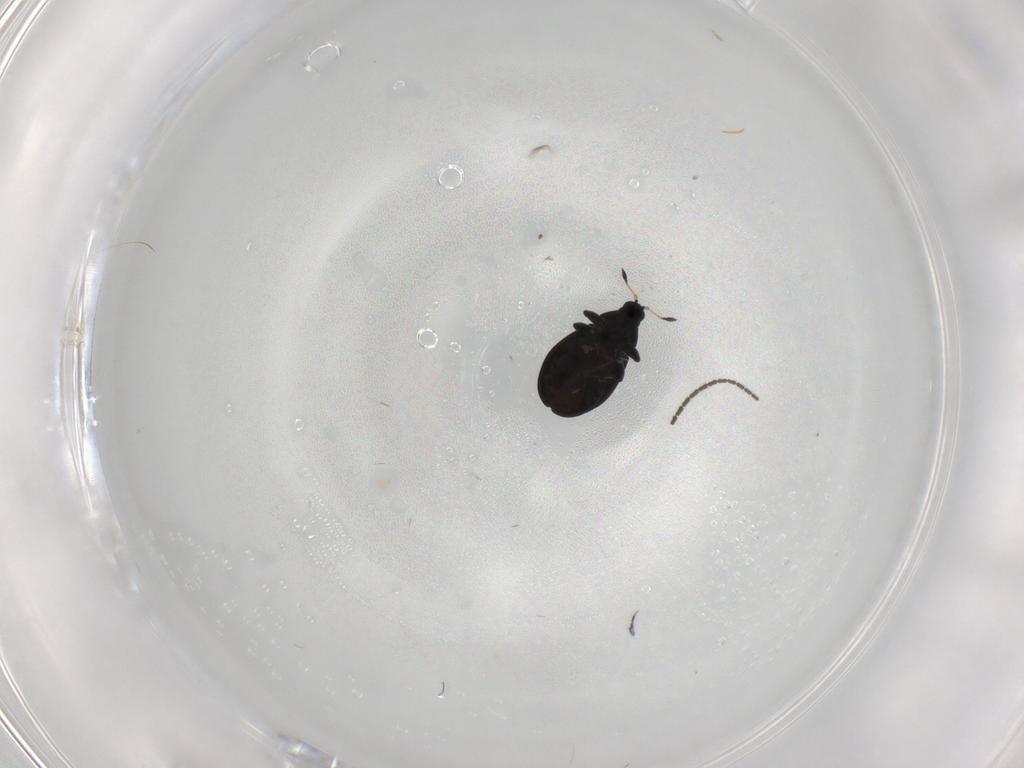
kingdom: Animalia
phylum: Arthropoda
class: Insecta
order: Coleoptera
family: Curculionidae
